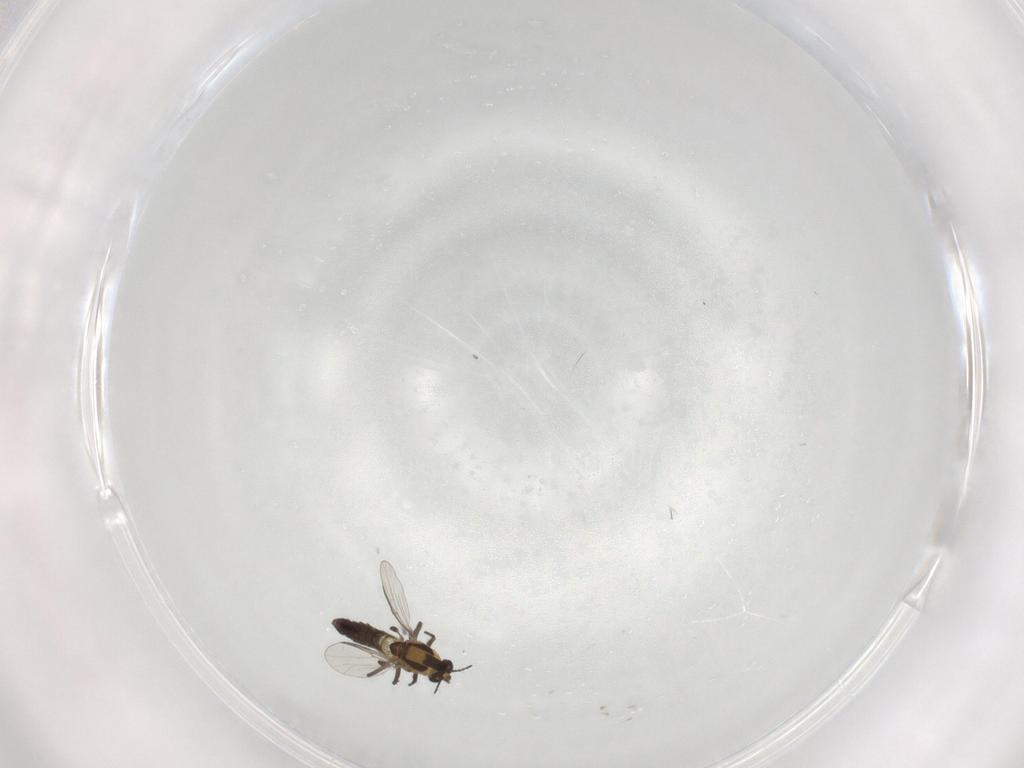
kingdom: Animalia
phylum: Arthropoda
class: Insecta
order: Diptera
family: Chironomidae
